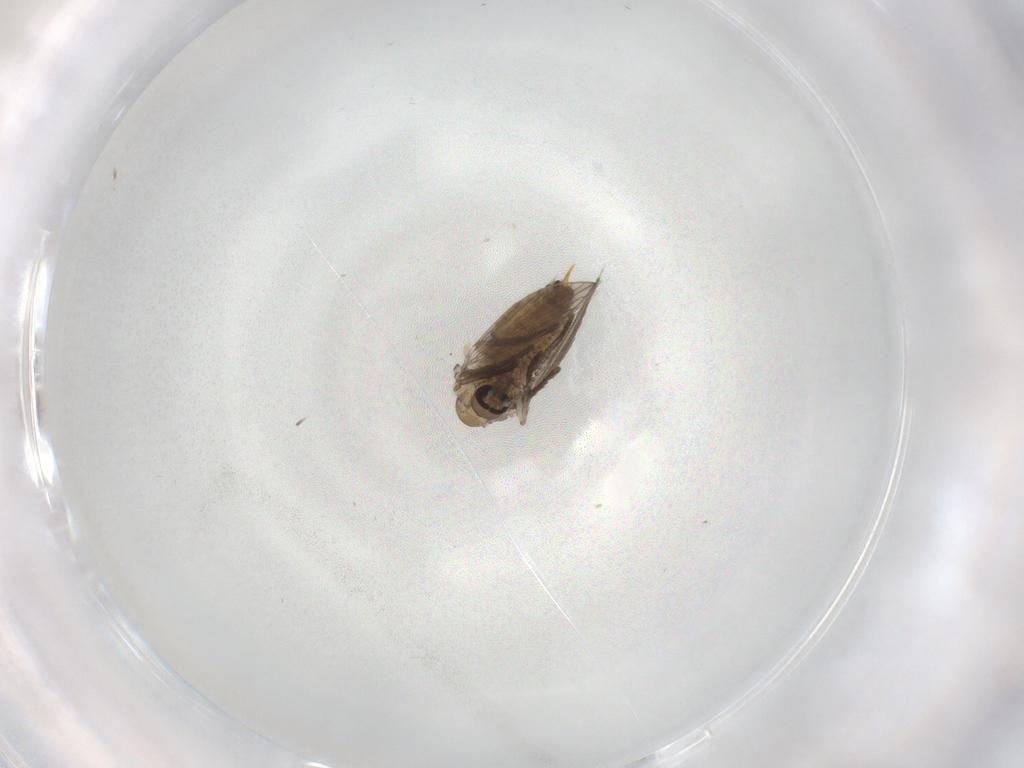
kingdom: Animalia
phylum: Arthropoda
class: Insecta
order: Diptera
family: Psychodidae
